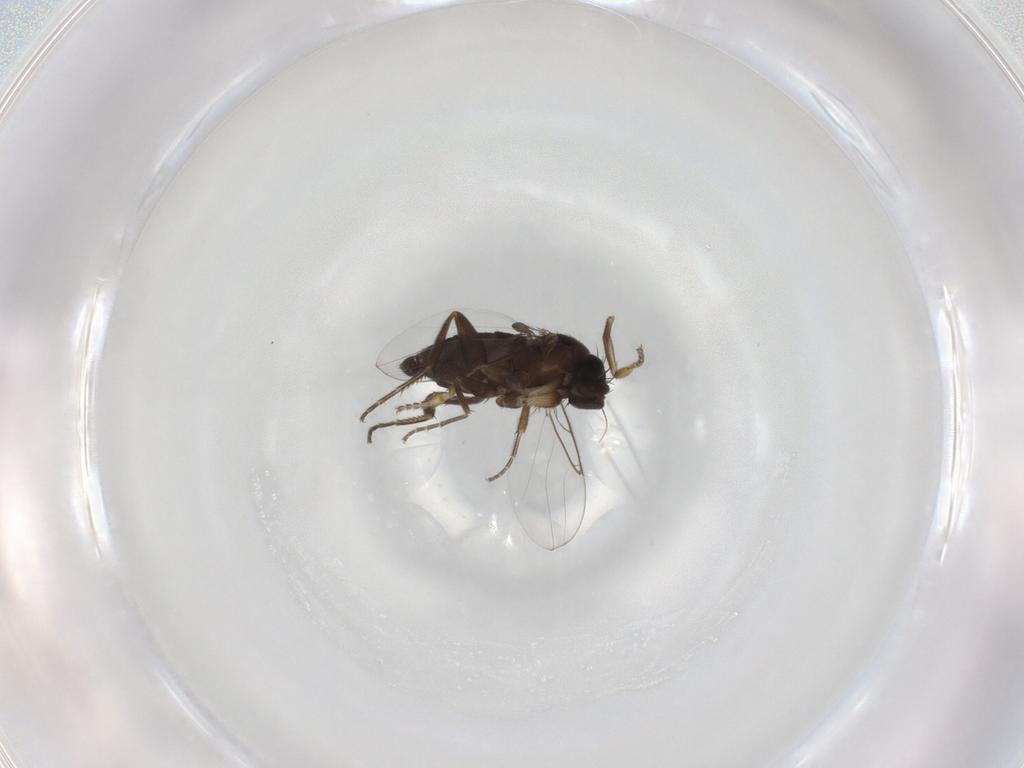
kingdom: Animalia
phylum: Arthropoda
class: Insecta
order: Diptera
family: Phoridae
